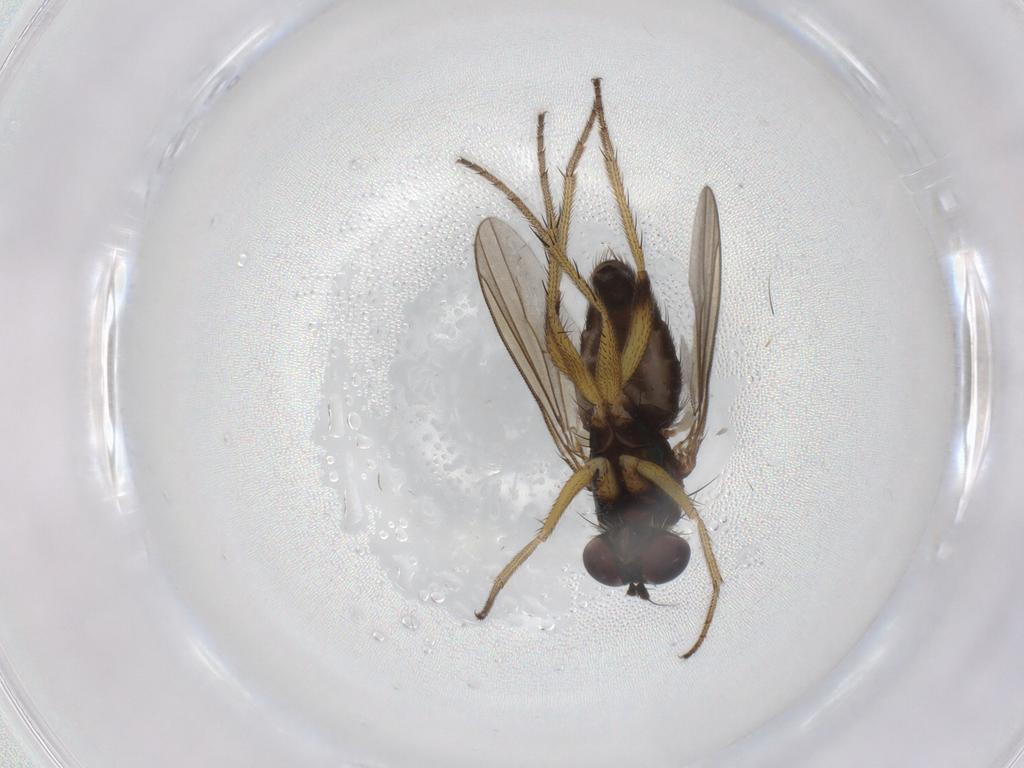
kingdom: Animalia
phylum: Arthropoda
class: Insecta
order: Diptera
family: Dolichopodidae
